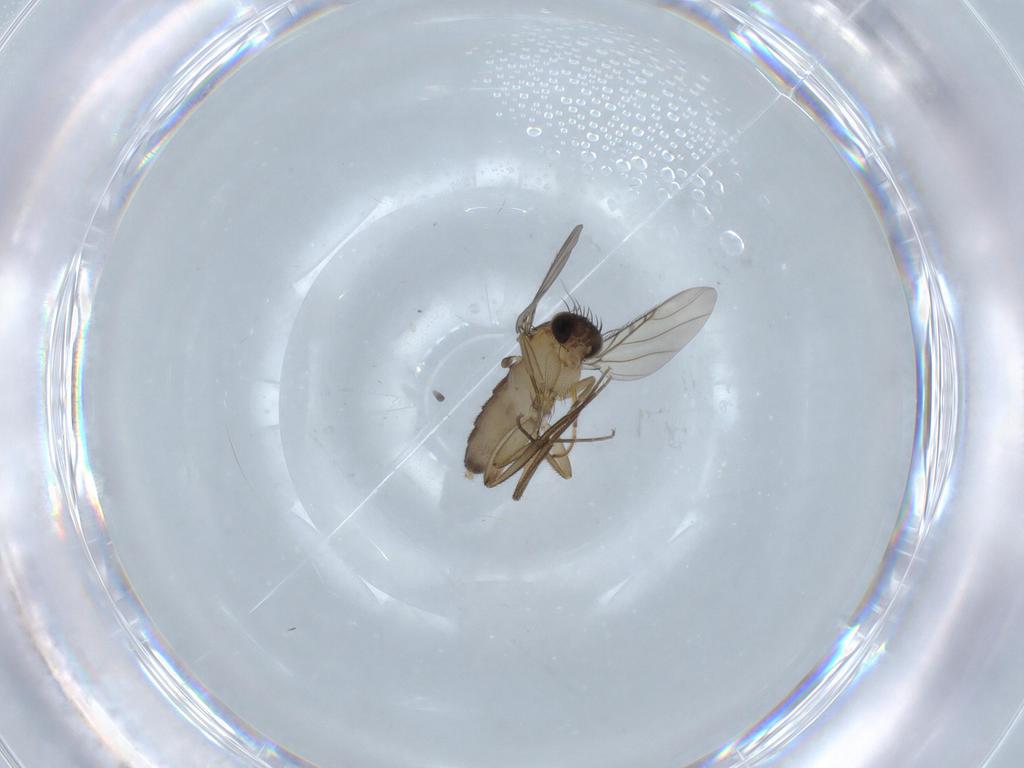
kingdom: Animalia
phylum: Arthropoda
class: Insecta
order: Diptera
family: Phoridae
